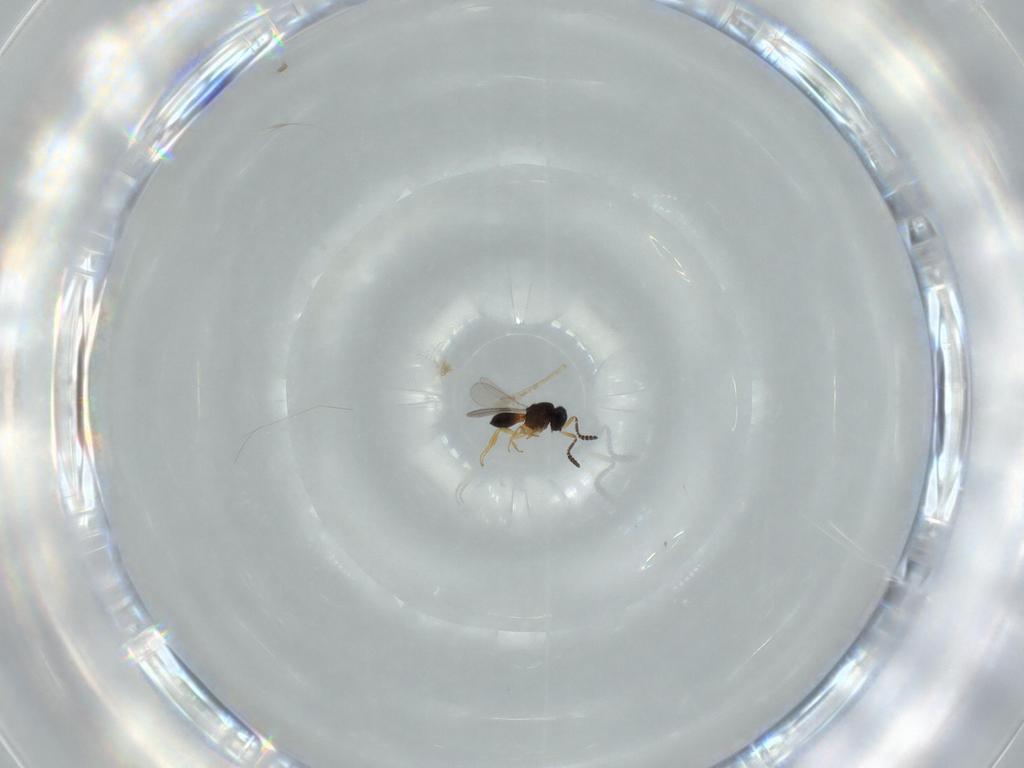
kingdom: Animalia
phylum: Arthropoda
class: Insecta
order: Hymenoptera
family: Scelionidae
